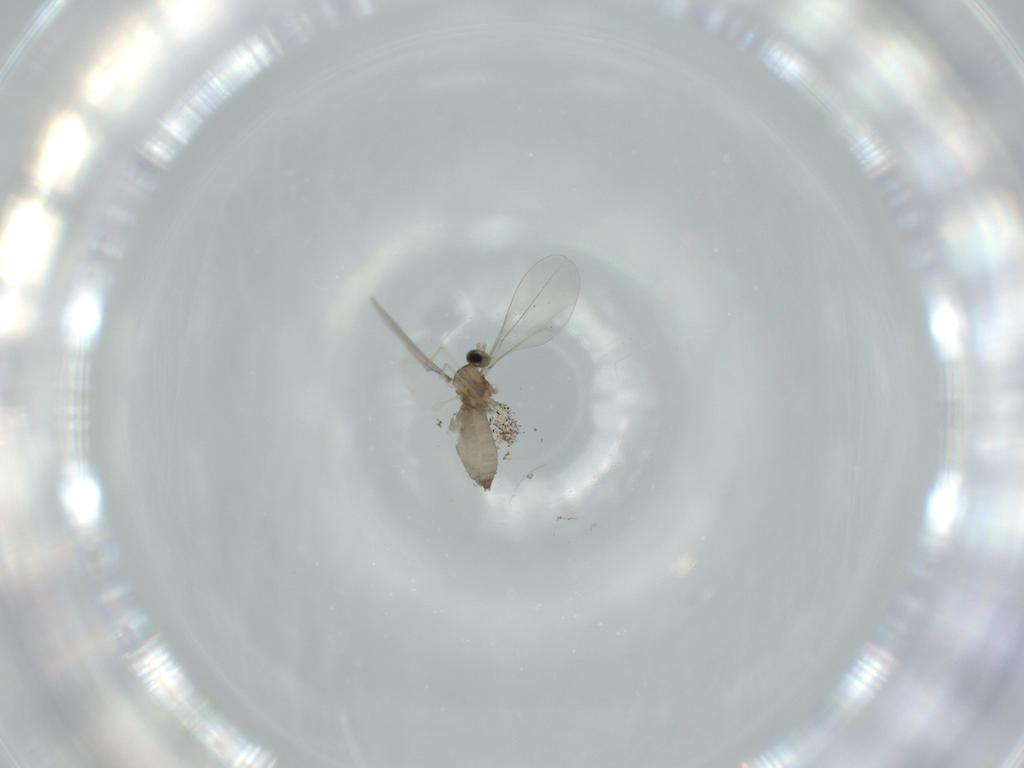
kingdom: Animalia
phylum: Arthropoda
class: Insecta
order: Diptera
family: Cecidomyiidae
